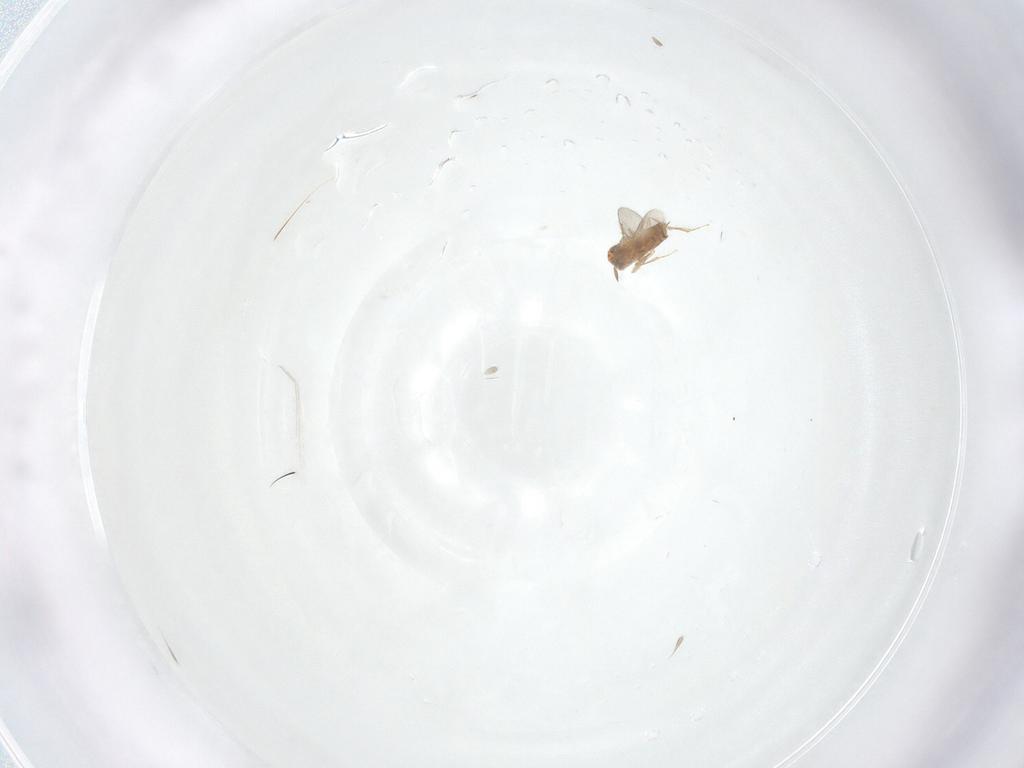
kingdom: Animalia
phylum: Arthropoda
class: Insecta
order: Hymenoptera
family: Aphelinidae
